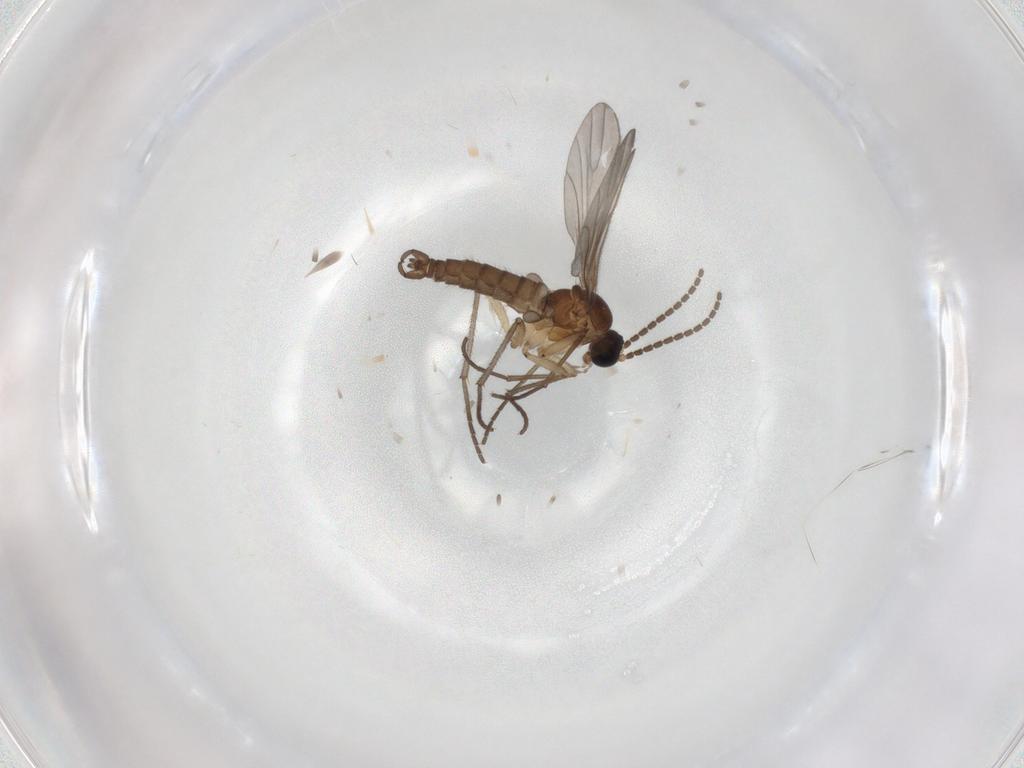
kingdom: Animalia
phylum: Arthropoda
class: Insecta
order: Diptera
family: Sciaridae
